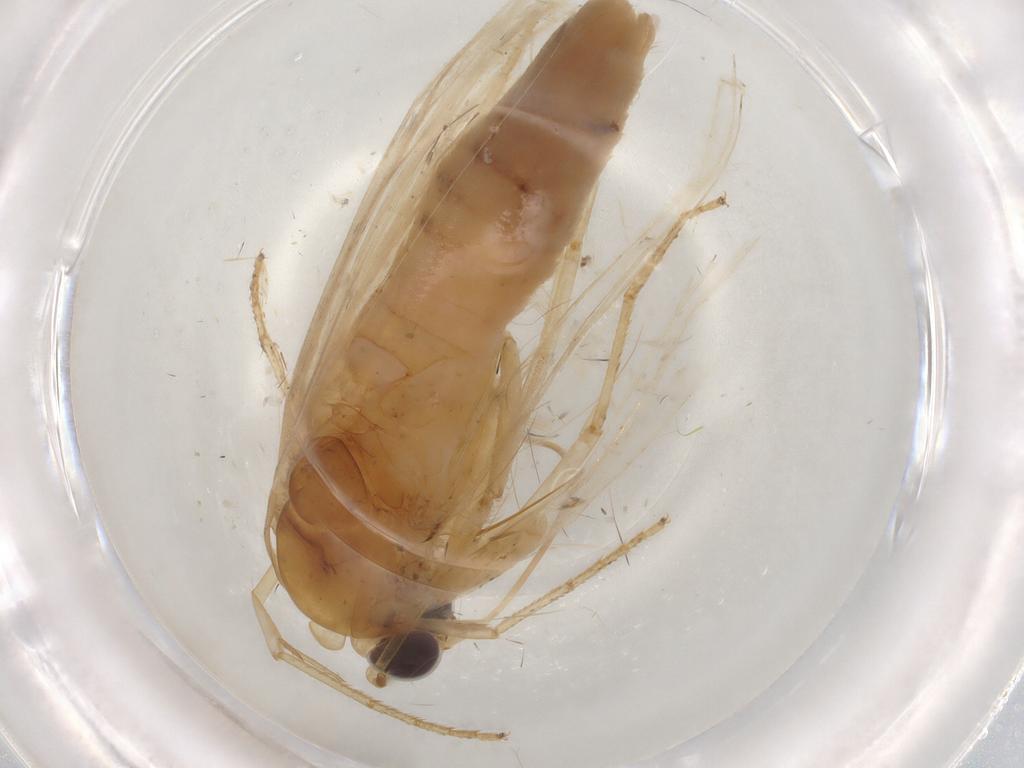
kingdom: Animalia
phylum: Arthropoda
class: Insecta
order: Lepidoptera
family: Nolidae
